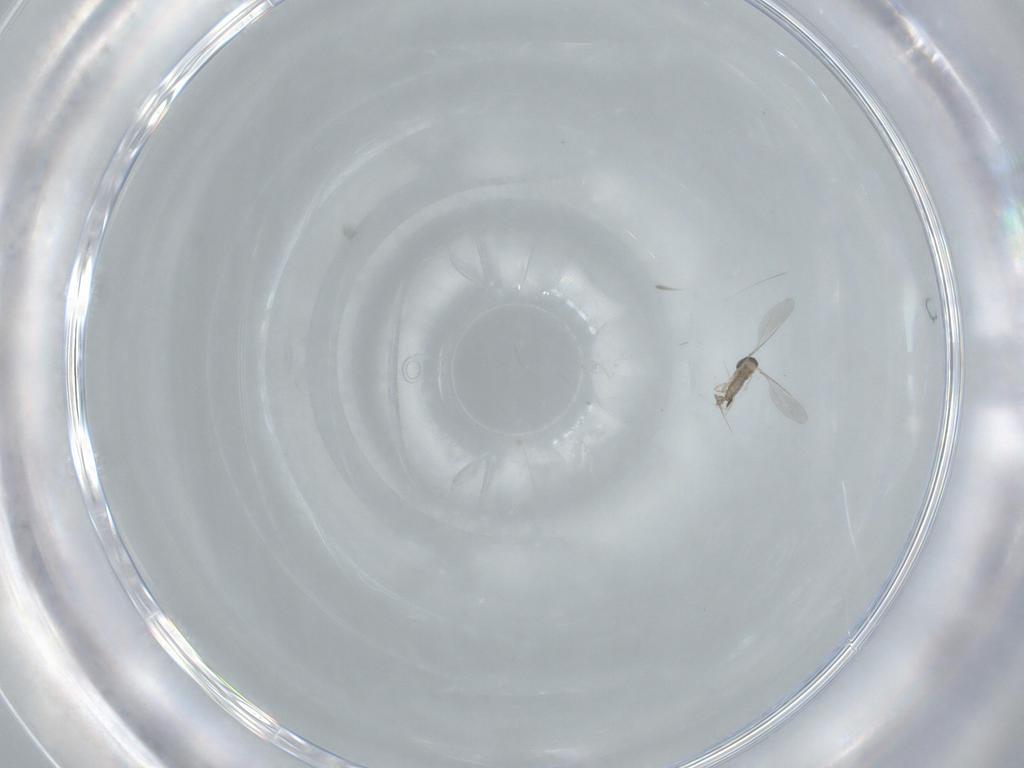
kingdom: Animalia
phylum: Arthropoda
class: Insecta
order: Diptera
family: Cecidomyiidae
